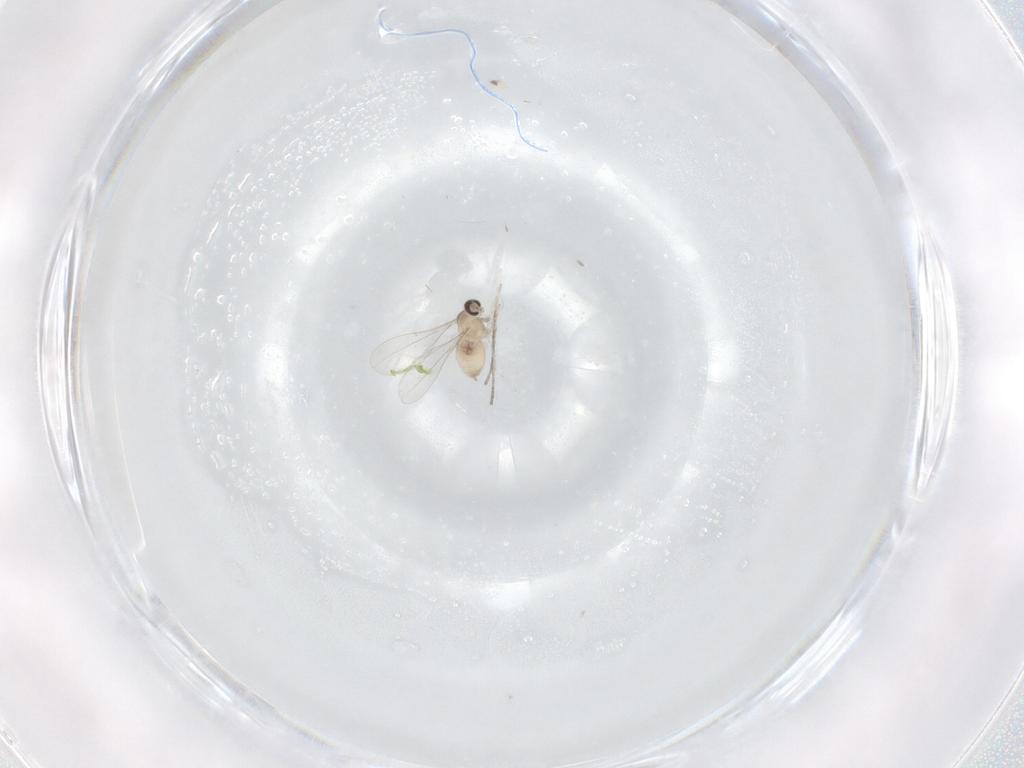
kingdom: Animalia
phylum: Arthropoda
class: Insecta
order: Diptera
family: Cecidomyiidae
